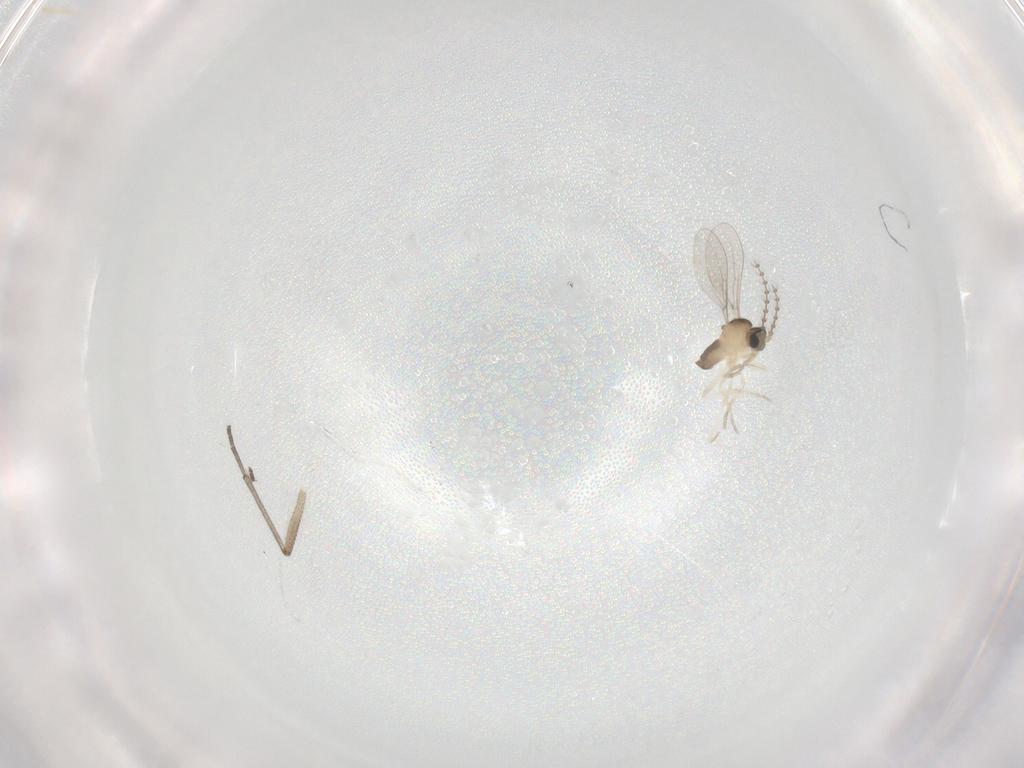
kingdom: Animalia
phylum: Arthropoda
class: Insecta
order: Diptera
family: Cecidomyiidae
